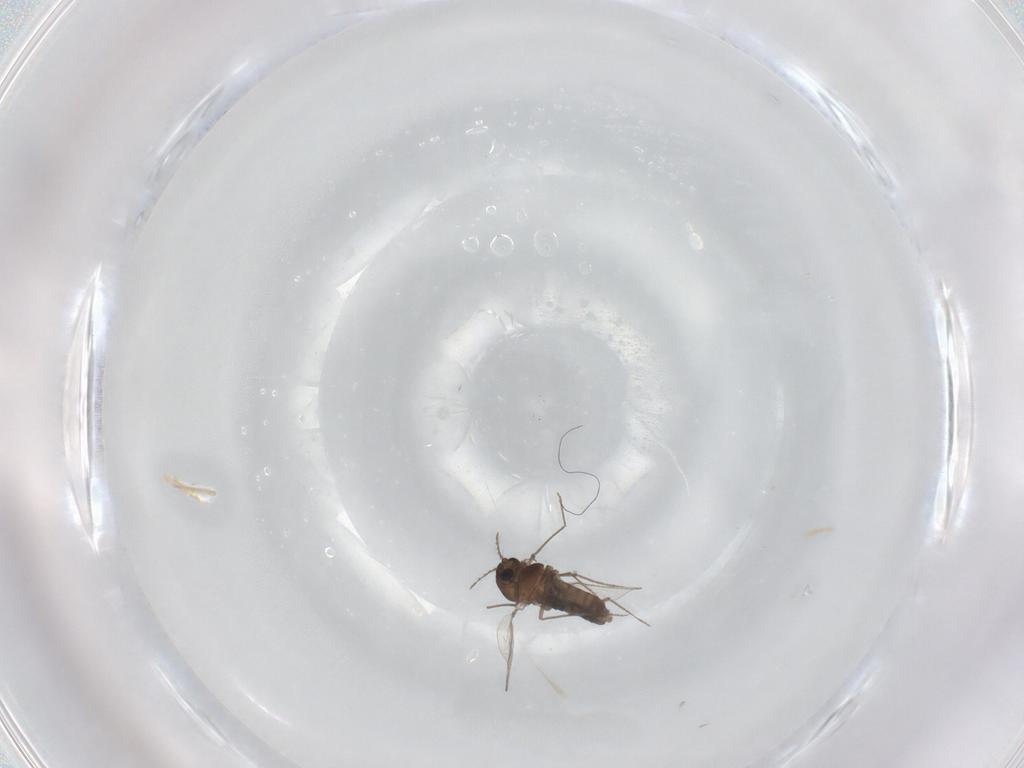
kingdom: Animalia
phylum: Arthropoda
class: Insecta
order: Diptera
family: Chironomidae
